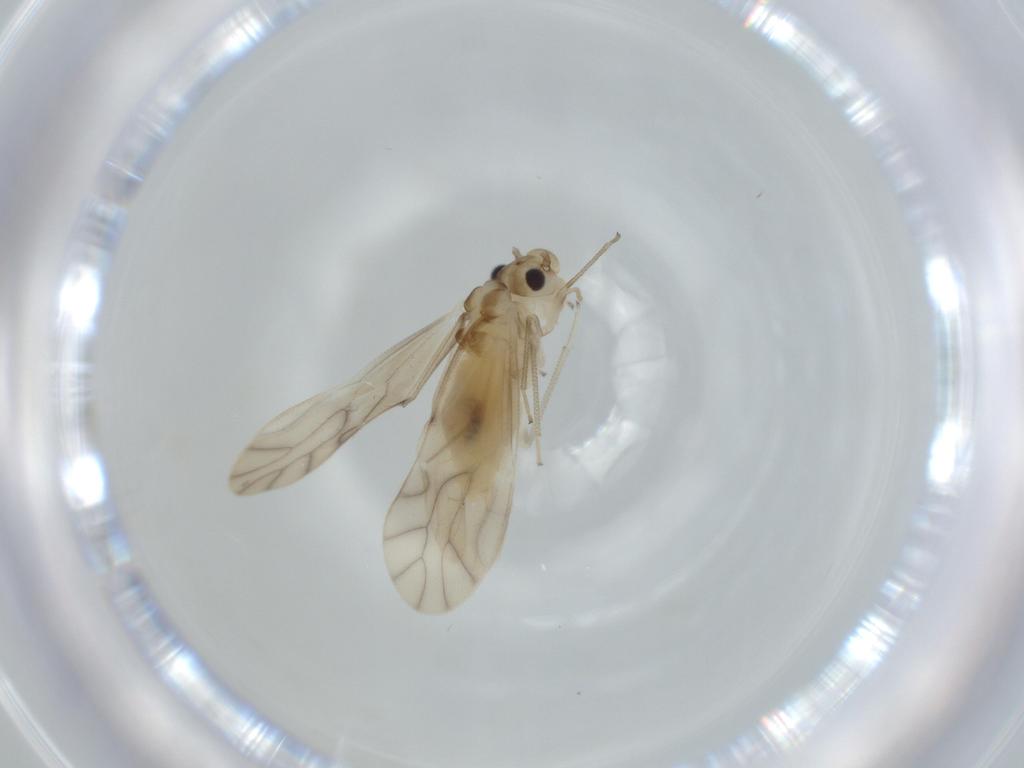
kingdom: Animalia
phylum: Arthropoda
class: Insecta
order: Psocodea
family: Caeciliusidae
